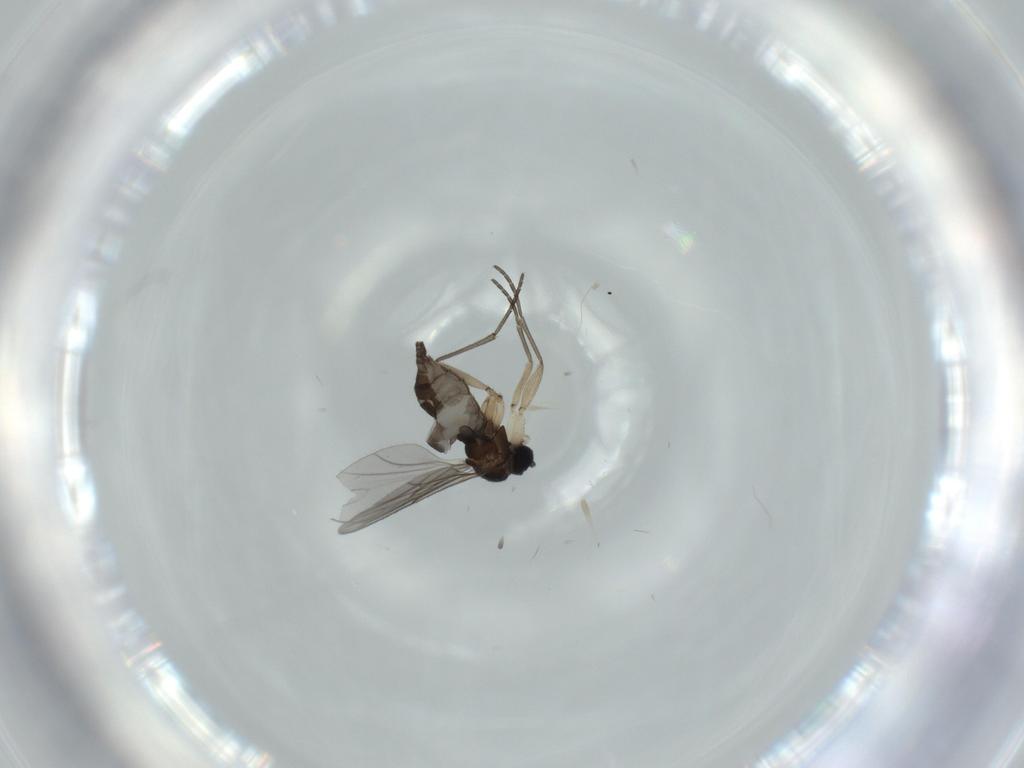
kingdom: Animalia
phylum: Arthropoda
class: Insecta
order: Diptera
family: Sciaridae
